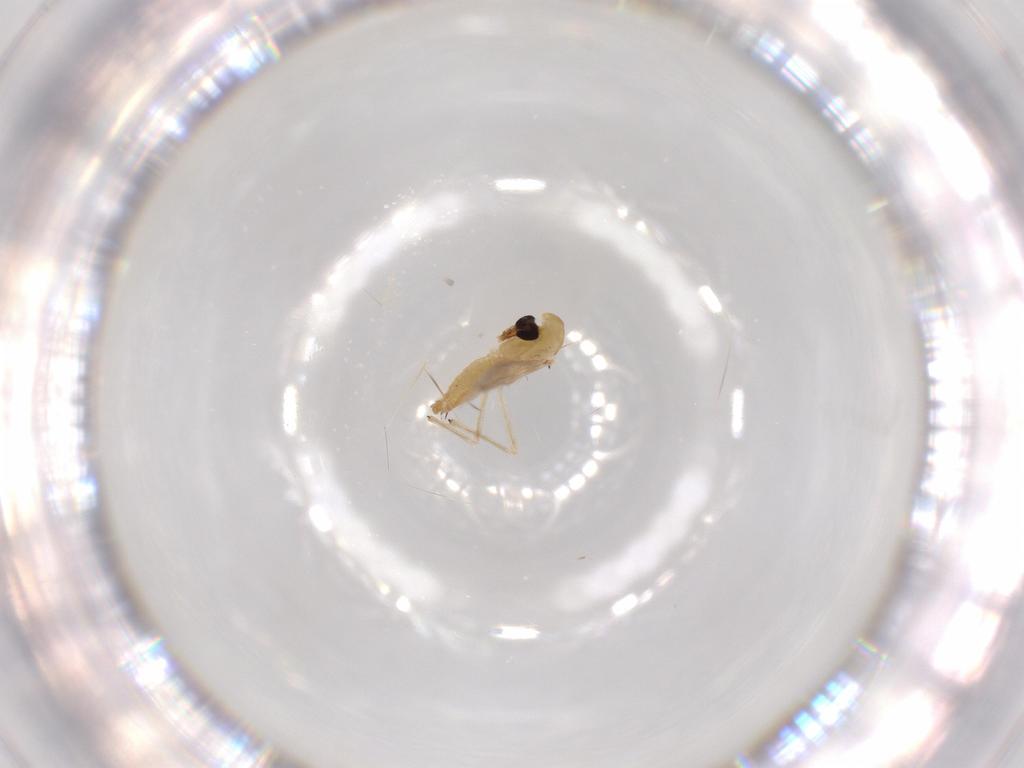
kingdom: Animalia
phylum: Arthropoda
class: Insecta
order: Diptera
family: Chironomidae
